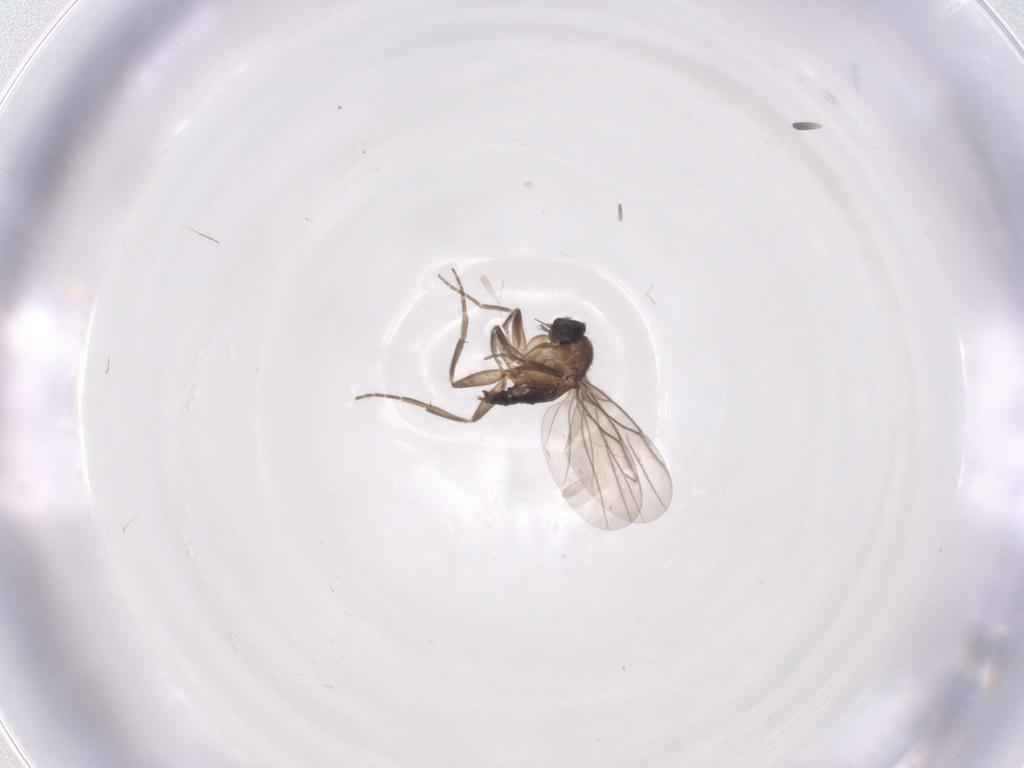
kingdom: Animalia
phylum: Arthropoda
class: Insecta
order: Diptera
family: Phoridae
